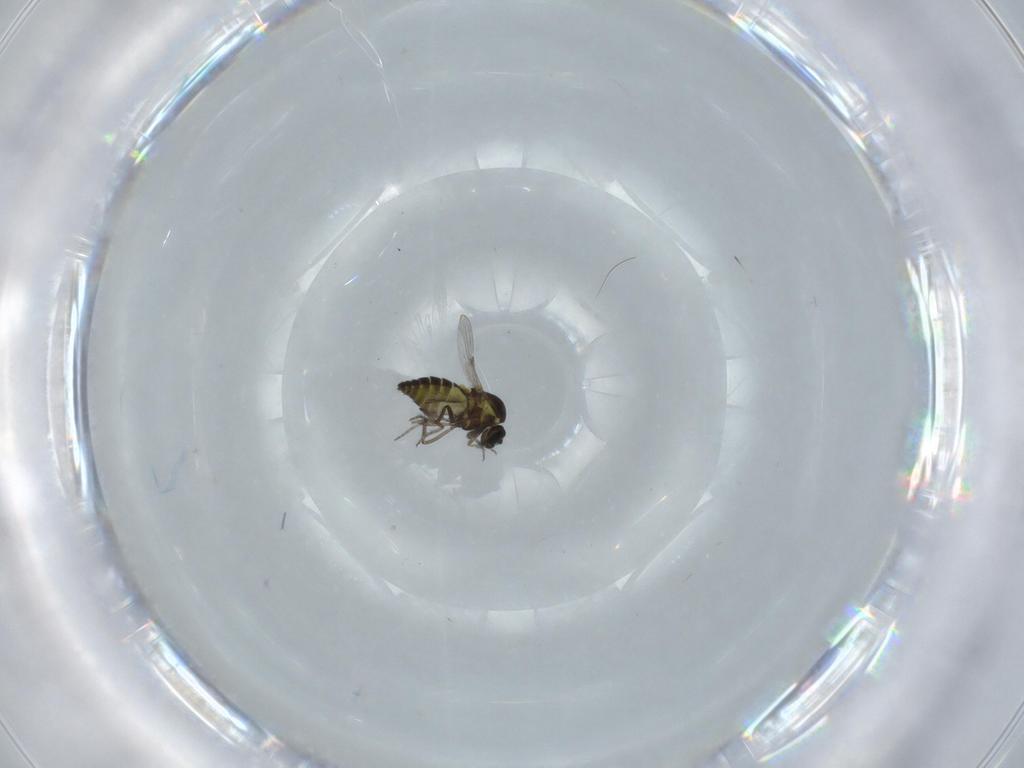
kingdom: Animalia
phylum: Arthropoda
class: Insecta
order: Diptera
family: Ceratopogonidae
